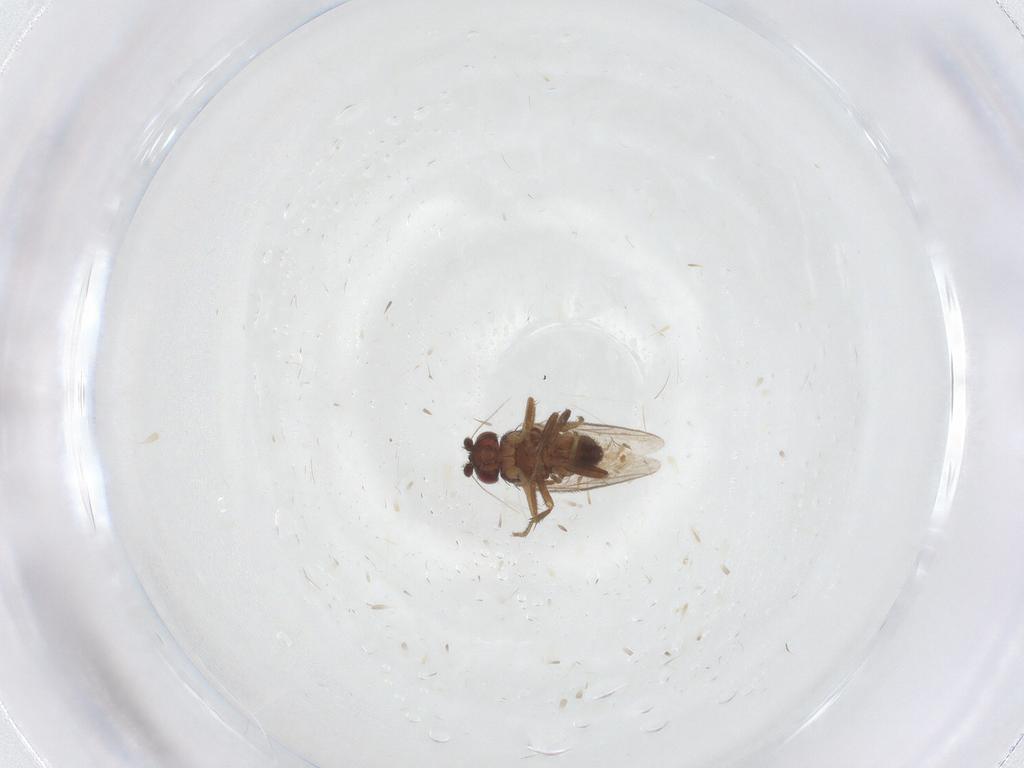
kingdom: Animalia
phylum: Arthropoda
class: Insecta
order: Diptera
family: Sphaeroceridae
